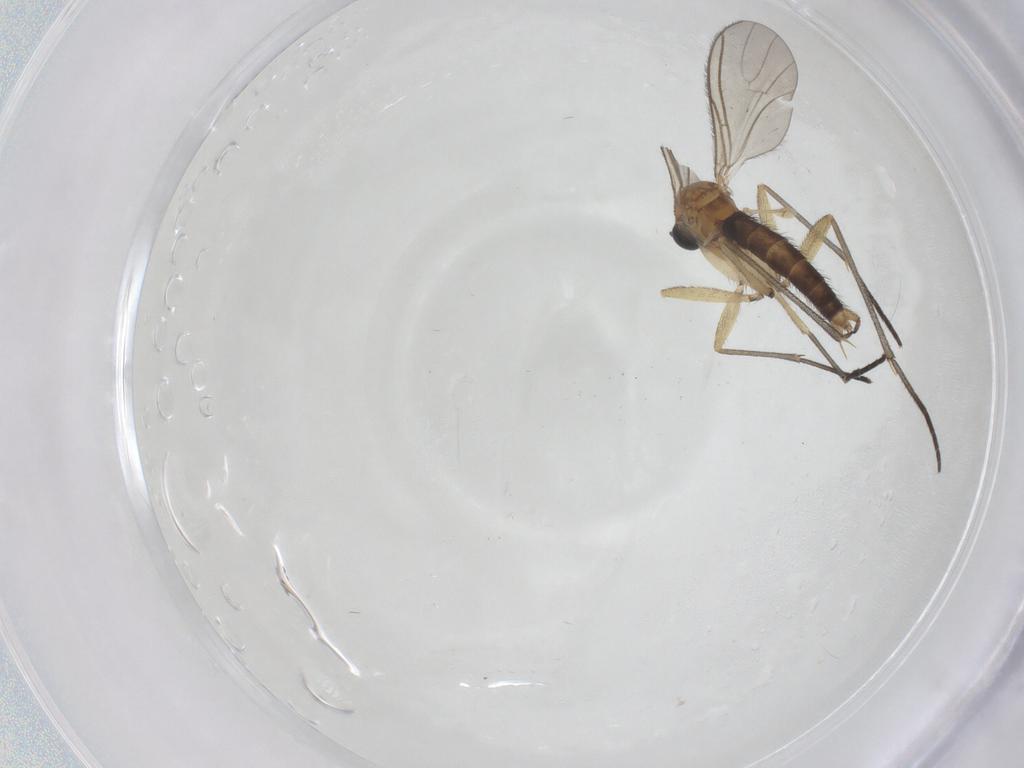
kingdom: Animalia
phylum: Arthropoda
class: Insecta
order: Diptera
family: Sciaridae
